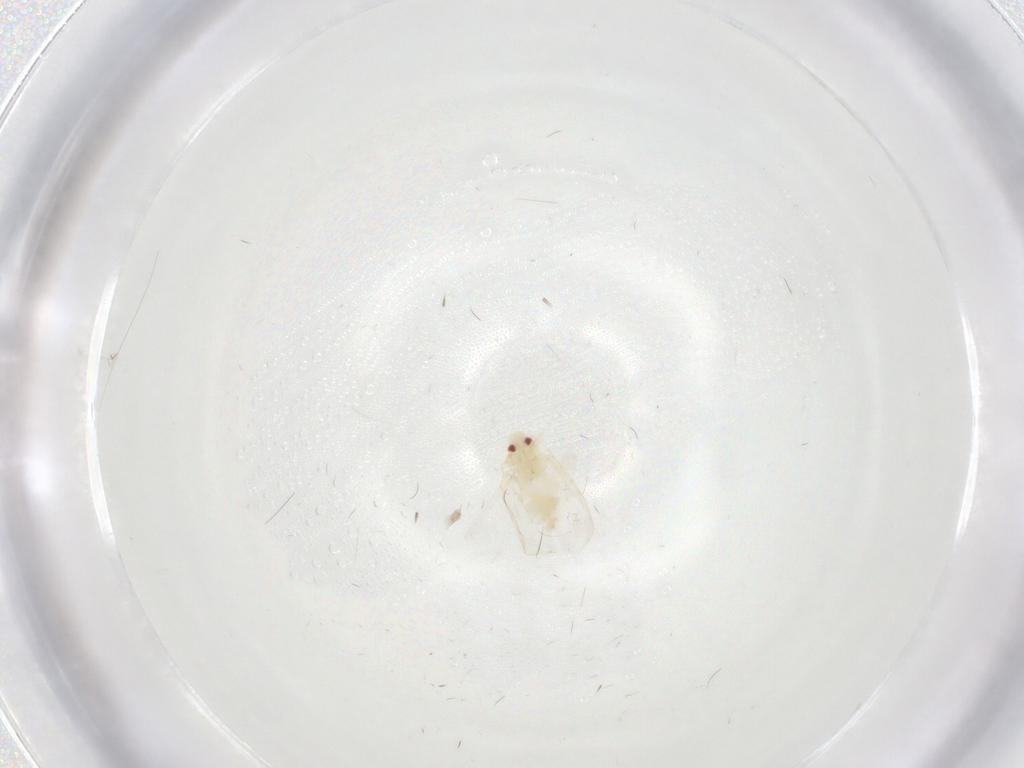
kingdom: Animalia
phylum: Arthropoda
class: Insecta
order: Hemiptera
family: Aleyrodidae
